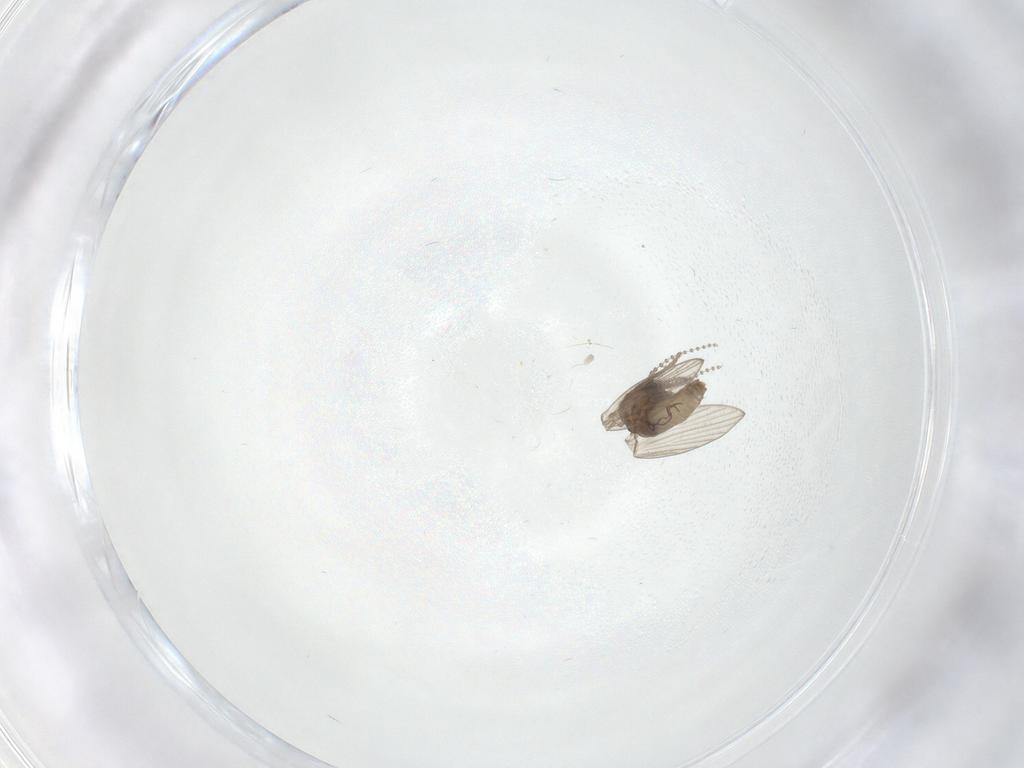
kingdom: Animalia
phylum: Arthropoda
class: Insecta
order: Diptera
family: Psychodidae
